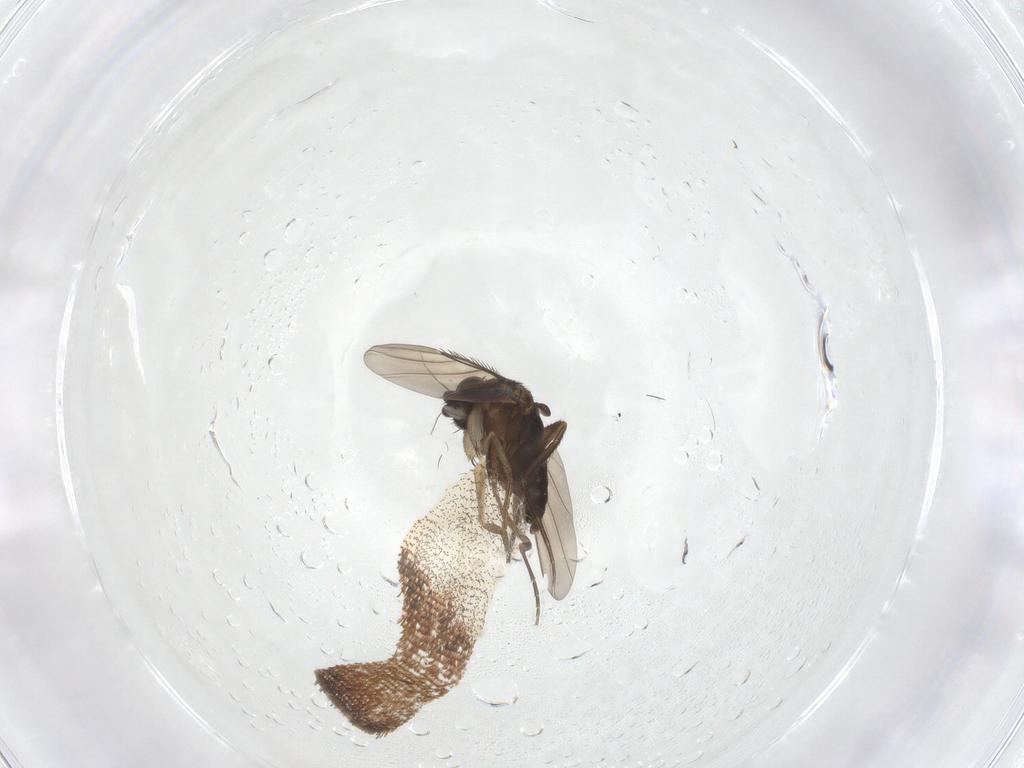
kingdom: Animalia
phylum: Arthropoda
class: Insecta
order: Diptera
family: Phoridae
